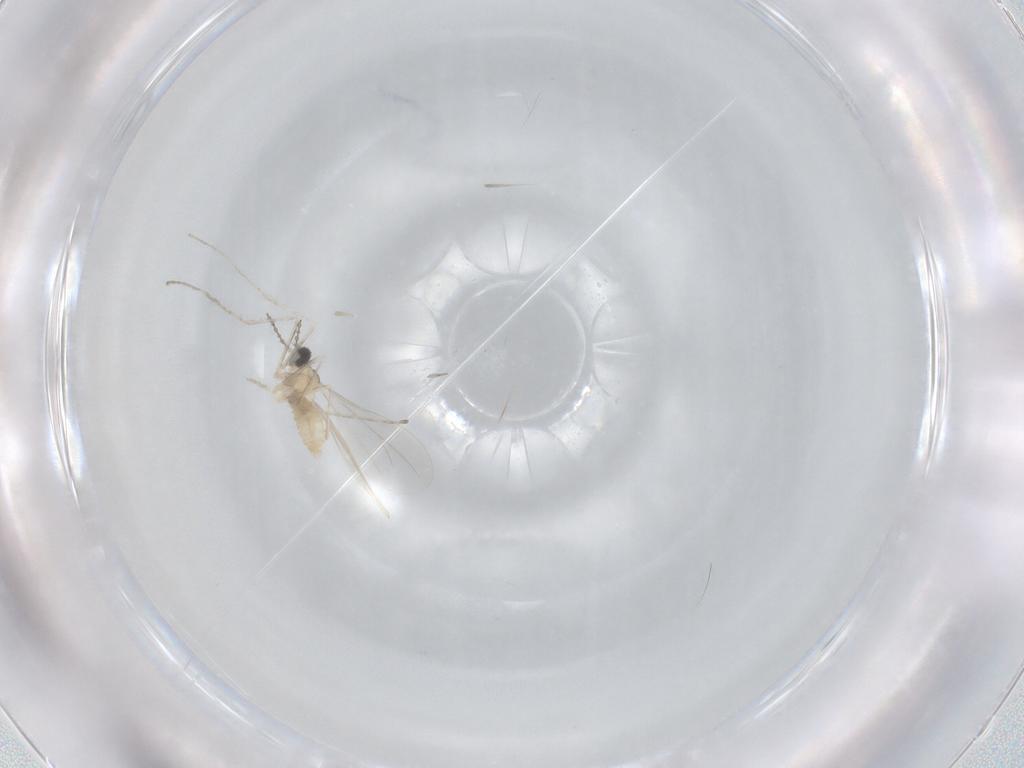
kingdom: Animalia
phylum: Arthropoda
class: Insecta
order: Diptera
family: Cecidomyiidae
